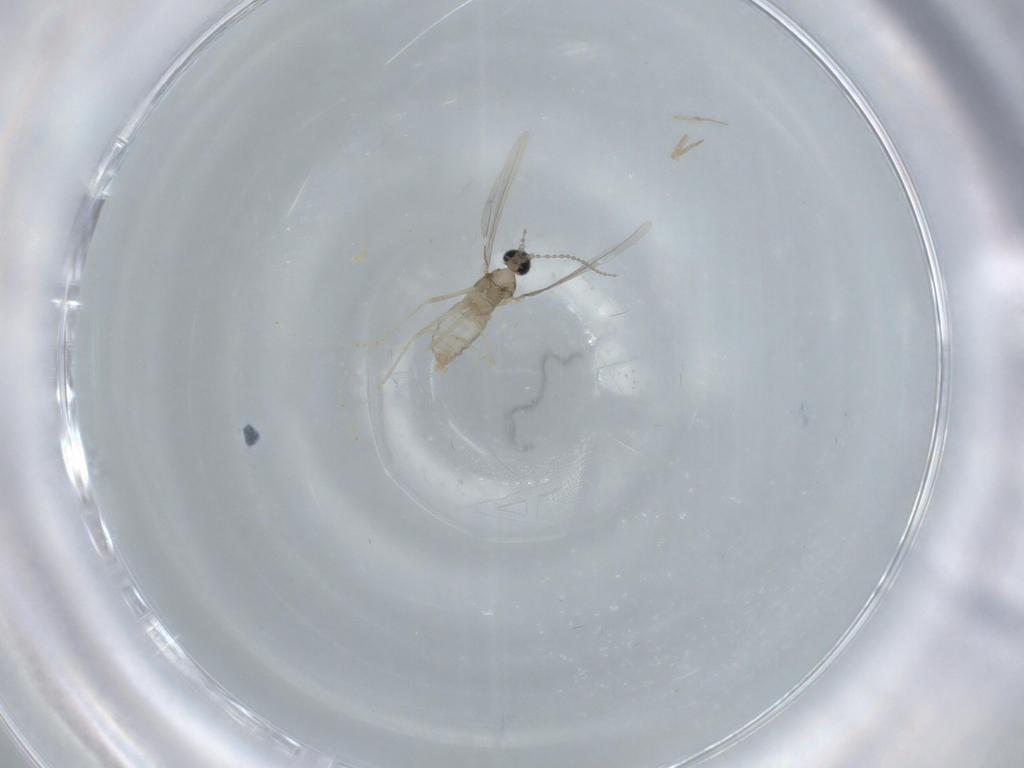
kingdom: Animalia
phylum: Arthropoda
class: Insecta
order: Diptera
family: Cecidomyiidae
